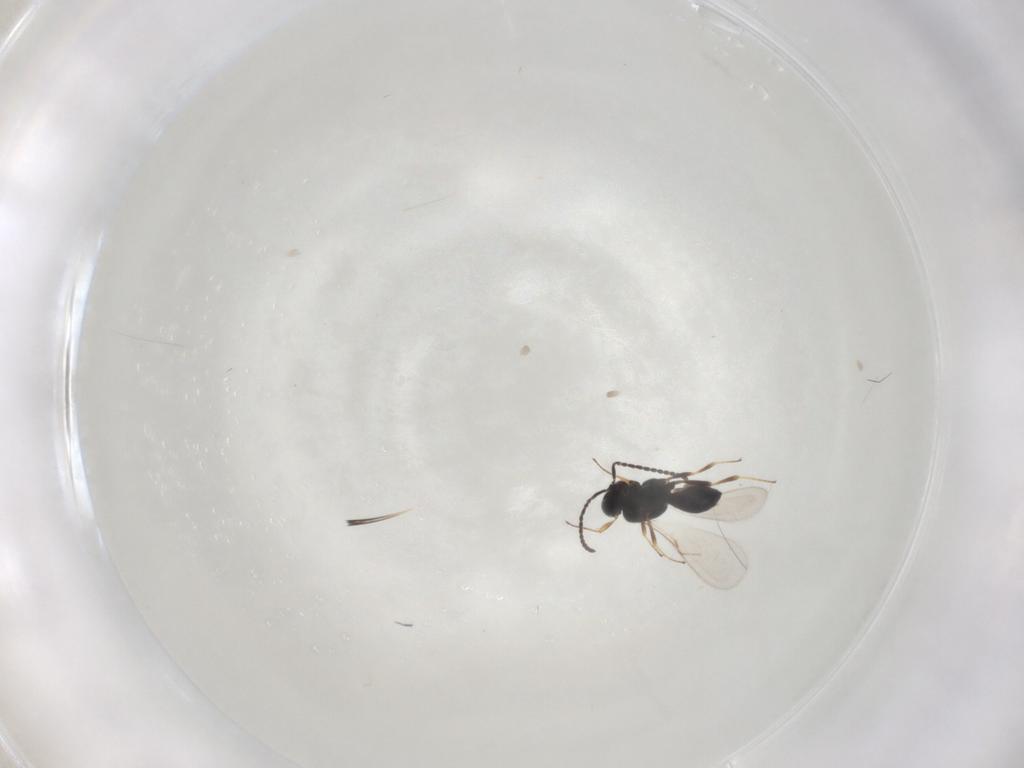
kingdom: Animalia
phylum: Arthropoda
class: Insecta
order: Hymenoptera
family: Scelionidae
